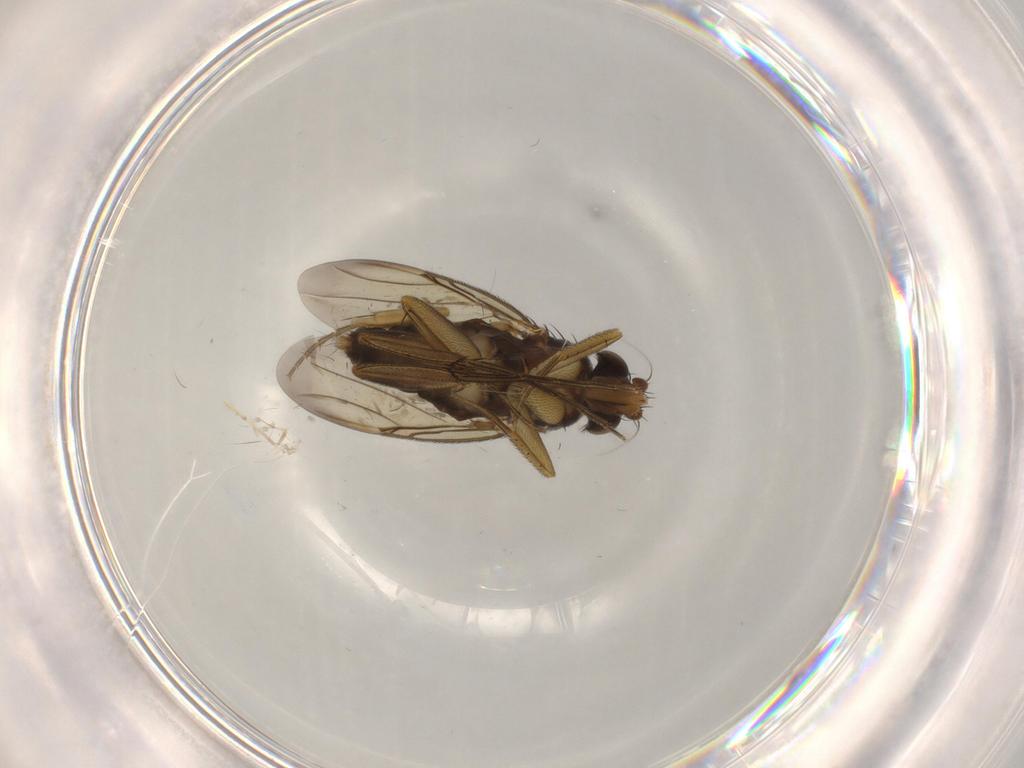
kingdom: Animalia
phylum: Arthropoda
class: Insecta
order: Diptera
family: Phoridae
